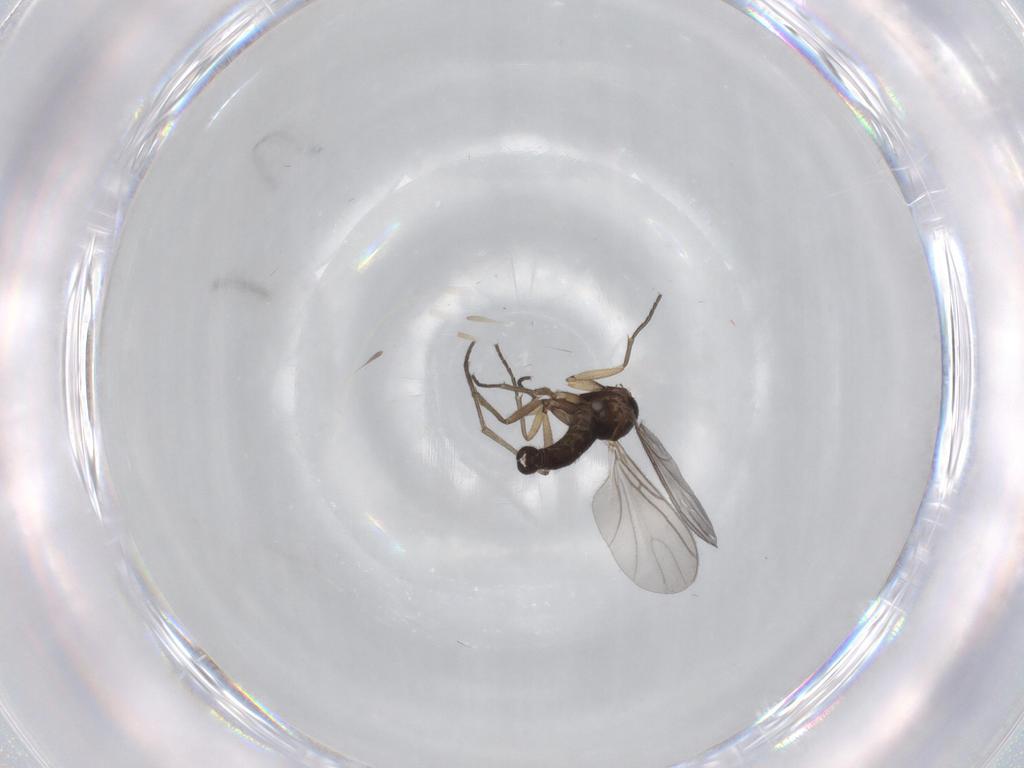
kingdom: Animalia
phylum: Arthropoda
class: Insecta
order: Diptera
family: Sciaridae
